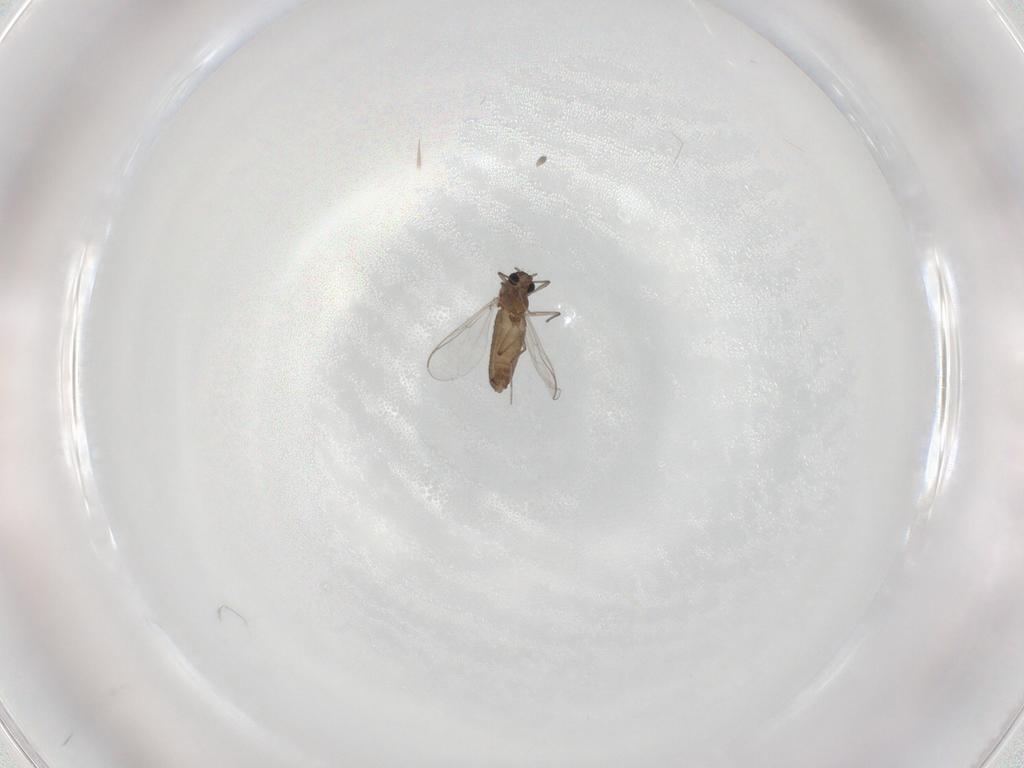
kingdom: Animalia
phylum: Arthropoda
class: Insecta
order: Diptera
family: Chironomidae
